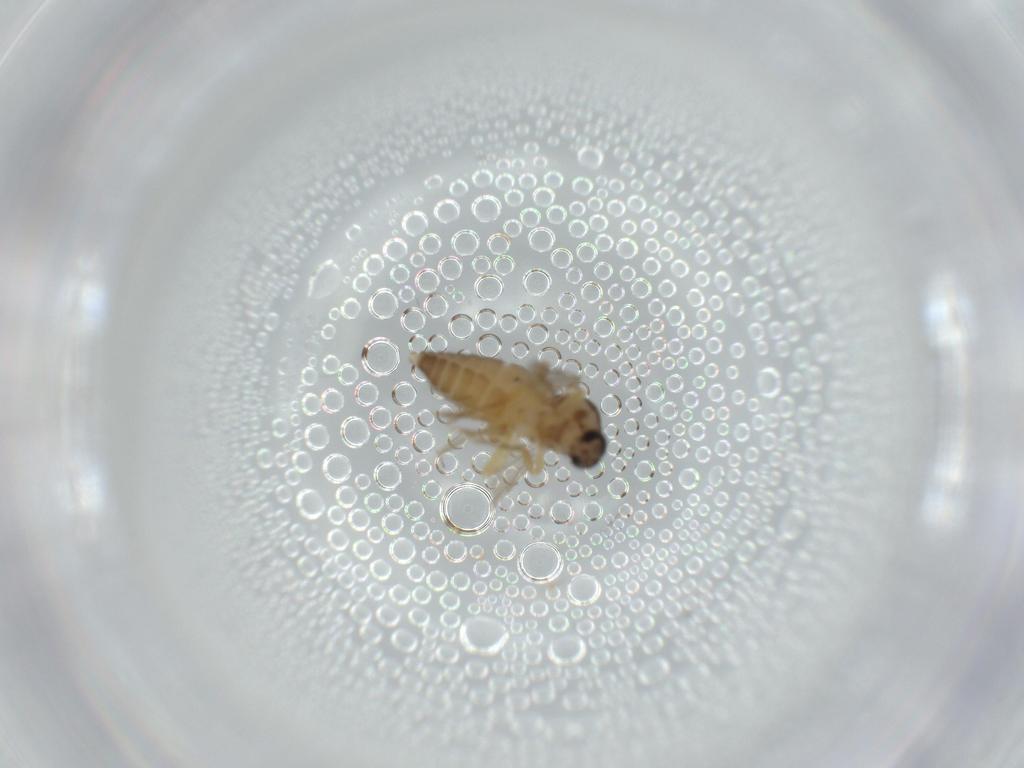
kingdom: Animalia
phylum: Arthropoda
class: Insecta
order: Diptera
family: Ceratopogonidae
